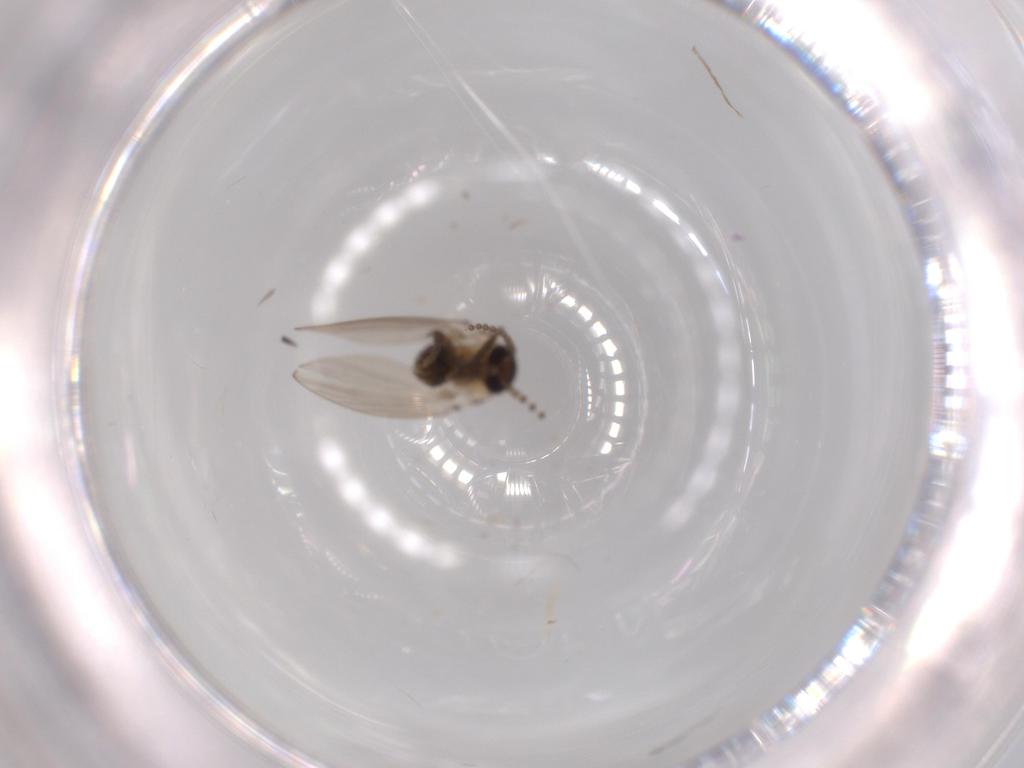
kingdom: Animalia
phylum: Arthropoda
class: Insecta
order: Diptera
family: Psychodidae
